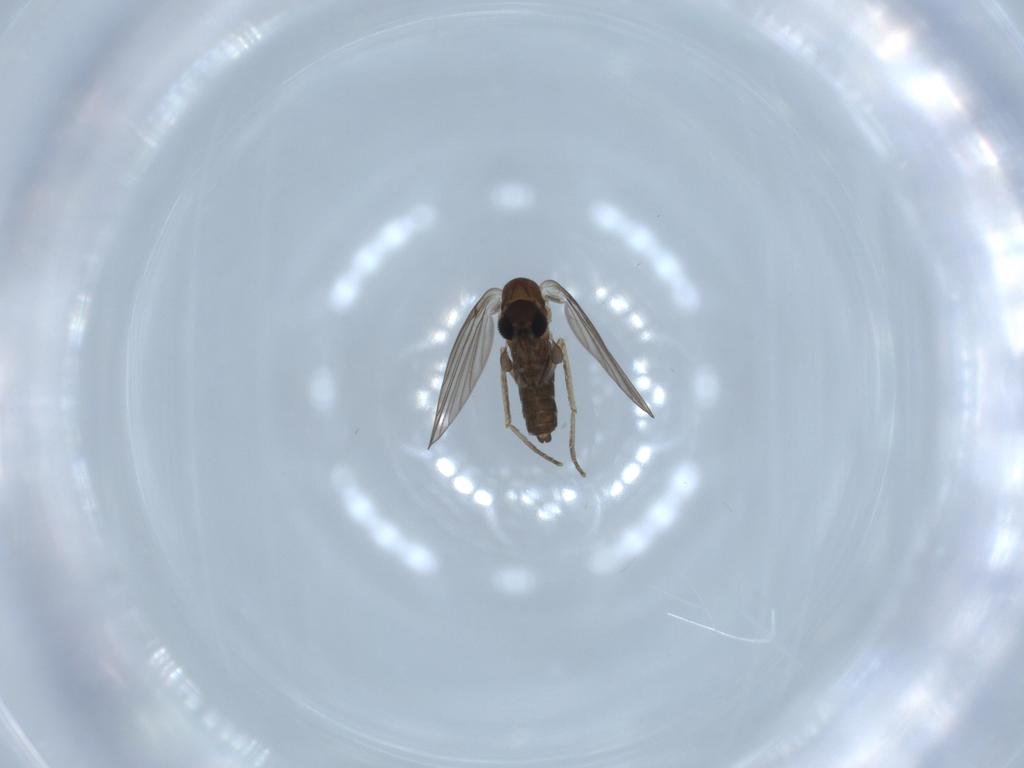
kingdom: Animalia
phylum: Arthropoda
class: Insecta
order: Diptera
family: Psychodidae
